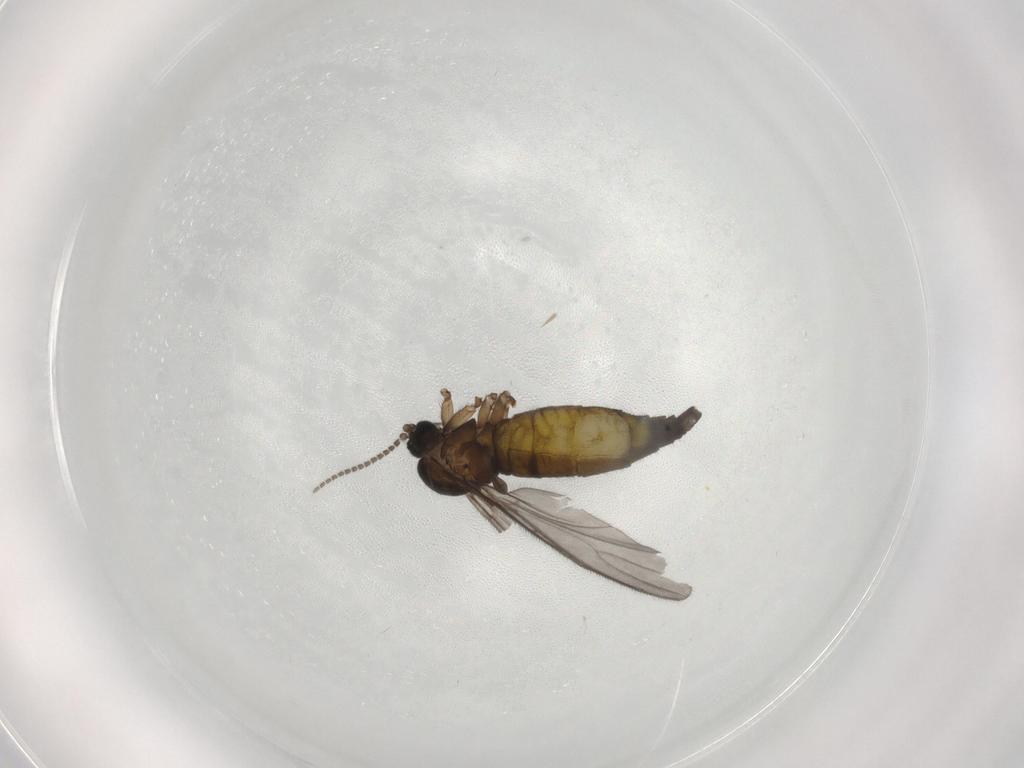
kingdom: Animalia
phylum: Arthropoda
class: Insecta
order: Diptera
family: Sciaridae
